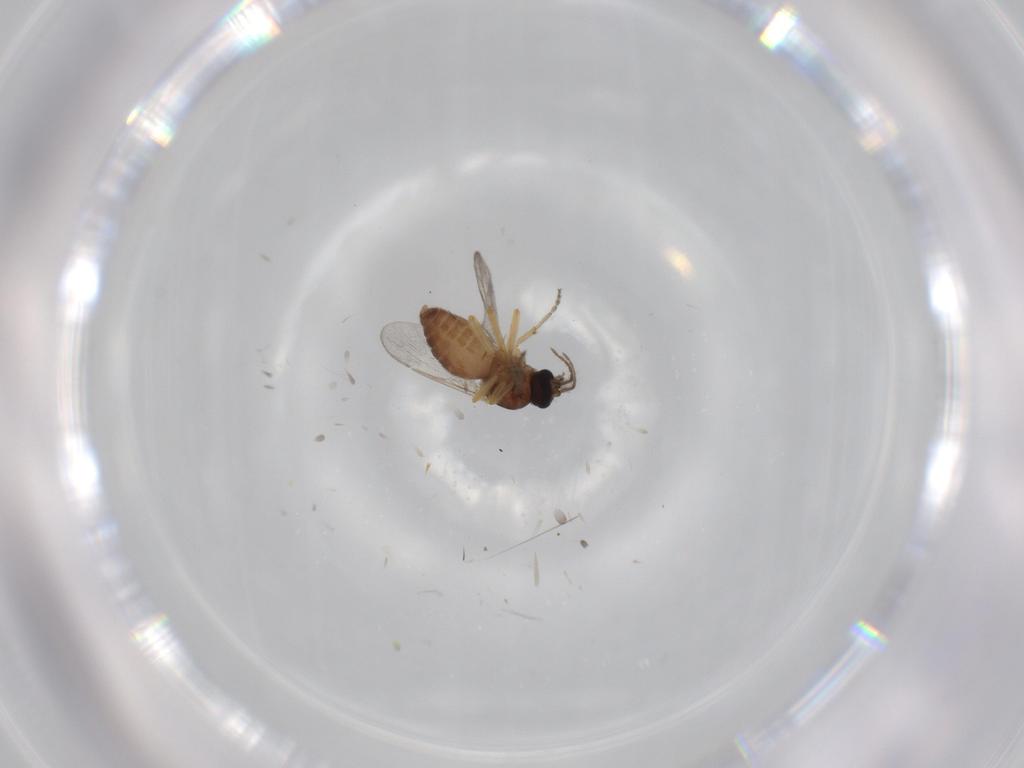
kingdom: Animalia
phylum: Arthropoda
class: Insecta
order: Diptera
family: Ceratopogonidae
